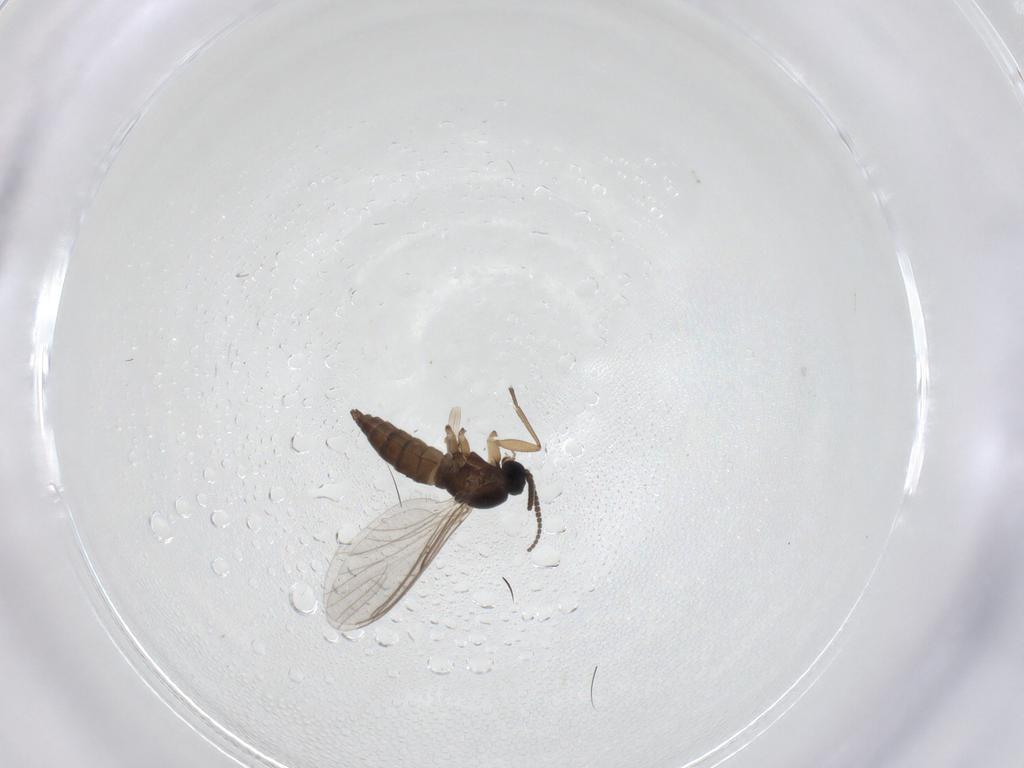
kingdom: Animalia
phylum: Arthropoda
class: Insecta
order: Diptera
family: Sciaridae
